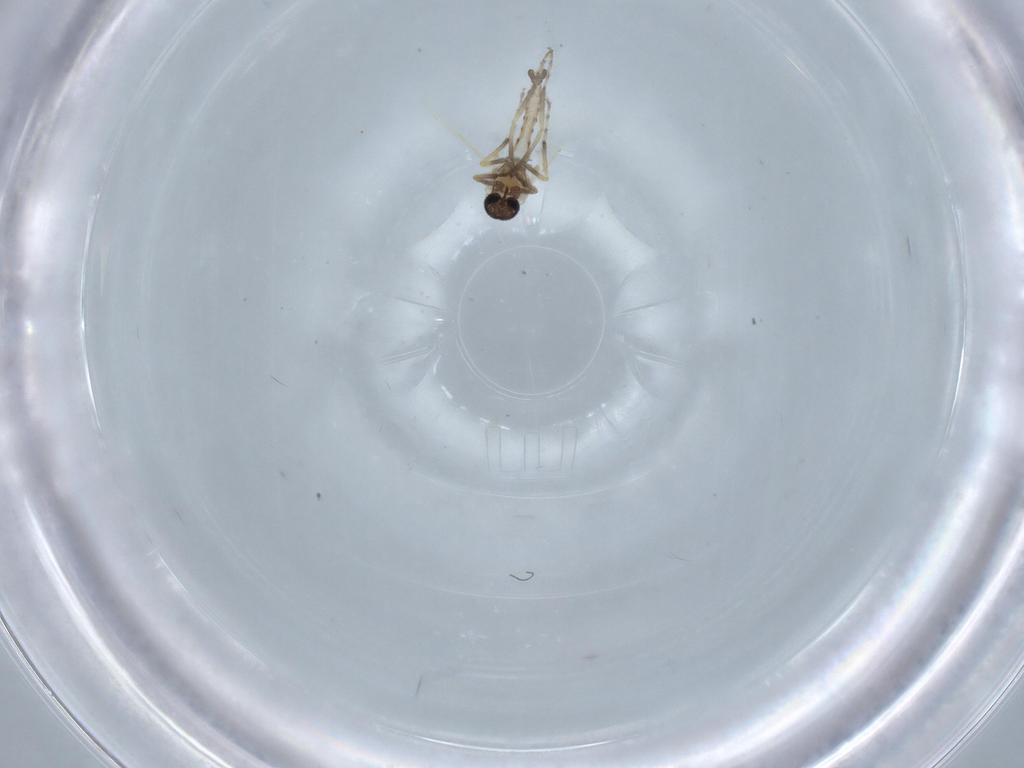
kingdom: Animalia
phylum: Arthropoda
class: Insecta
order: Diptera
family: Ceratopogonidae
